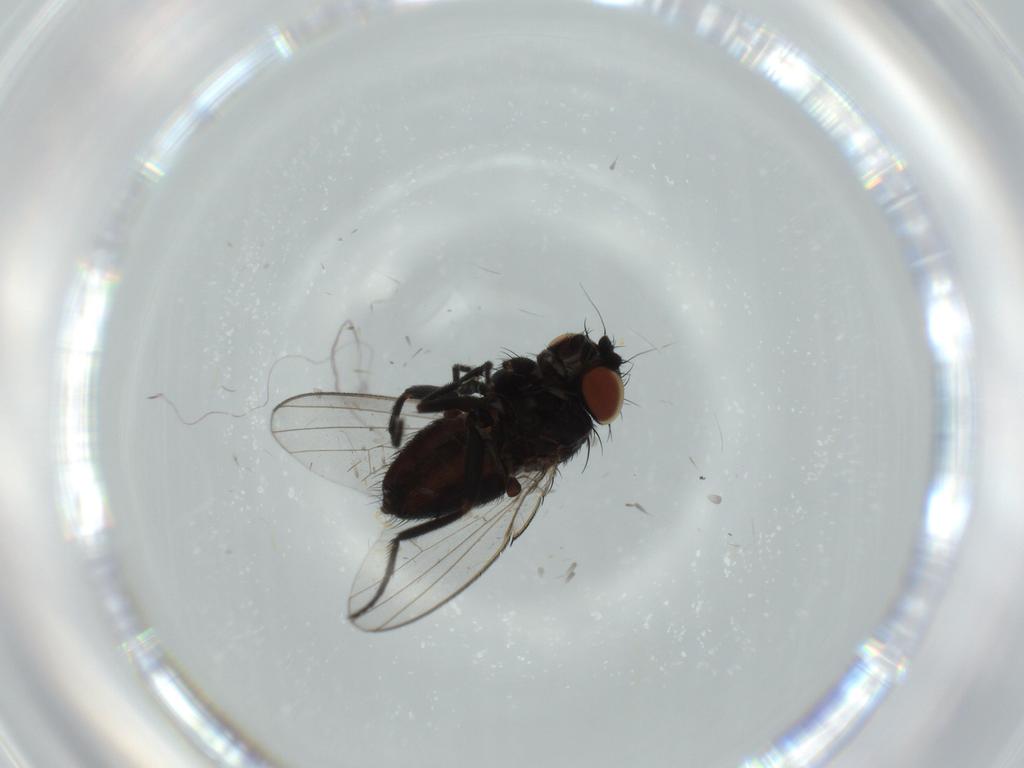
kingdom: Animalia
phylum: Arthropoda
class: Insecta
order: Diptera
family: Milichiidae
